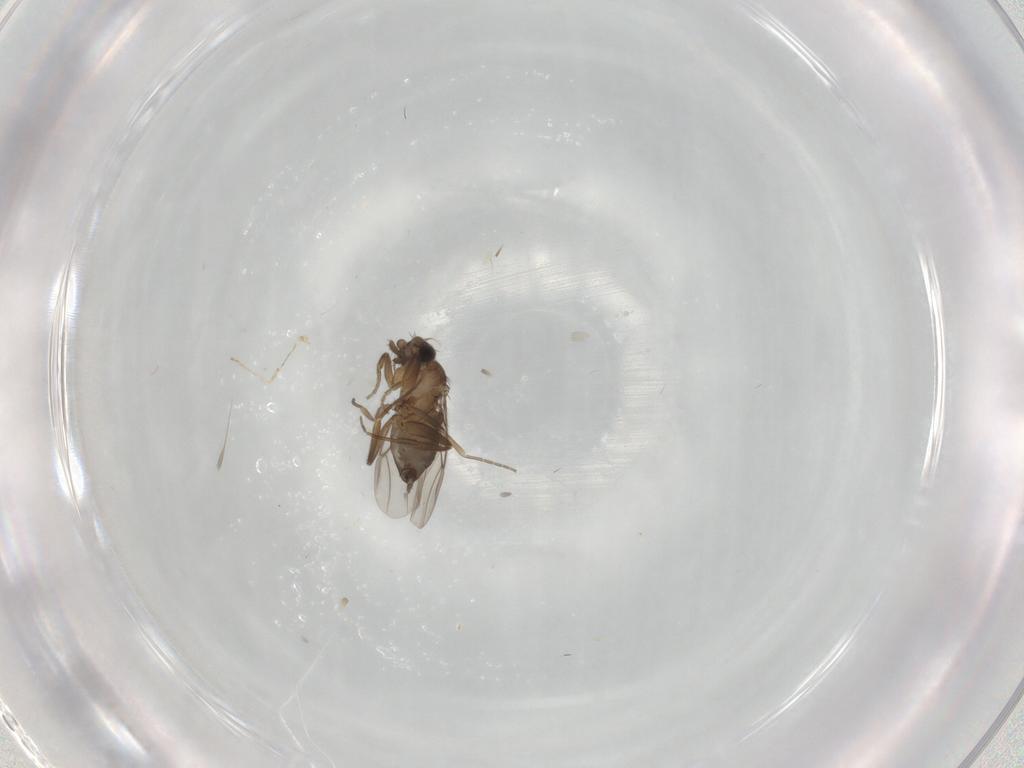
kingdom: Animalia
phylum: Arthropoda
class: Insecta
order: Diptera
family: Phoridae
